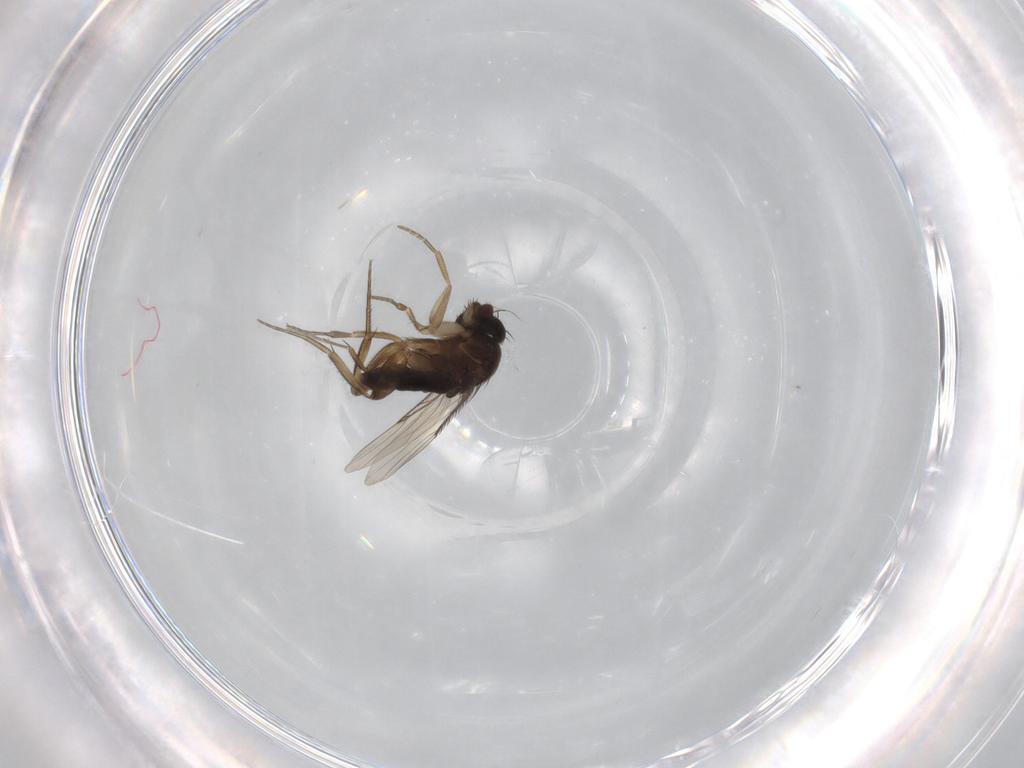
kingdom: Animalia
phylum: Arthropoda
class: Insecta
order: Diptera
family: Phoridae
